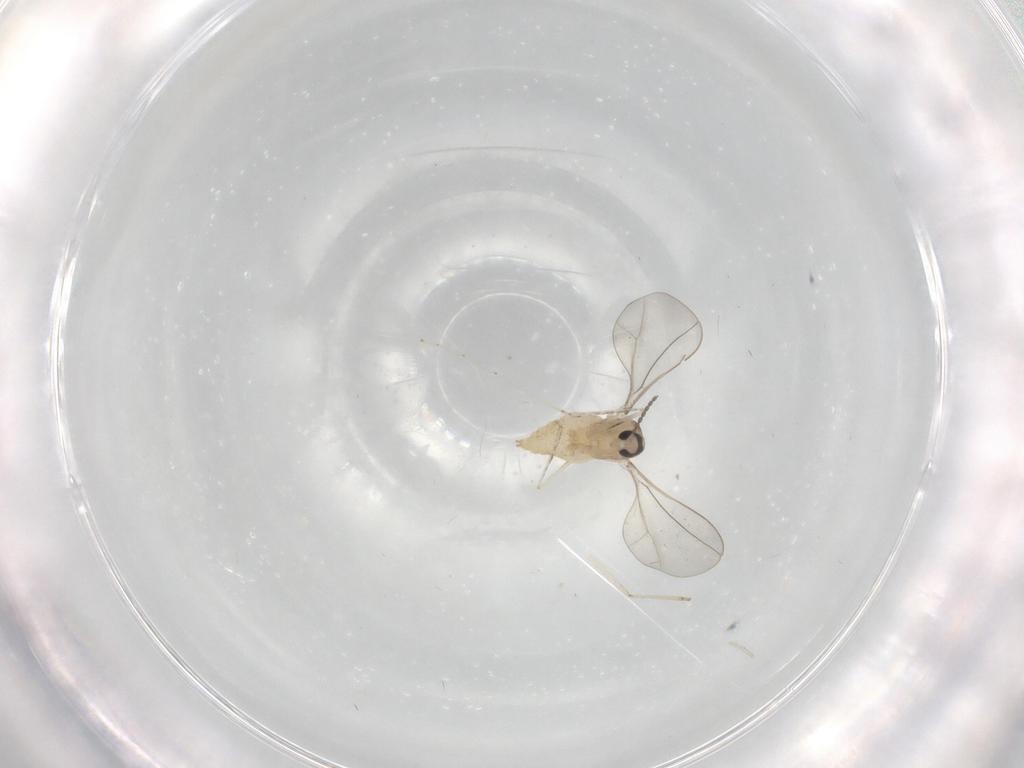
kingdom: Animalia
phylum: Arthropoda
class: Insecta
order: Diptera
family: Cecidomyiidae
